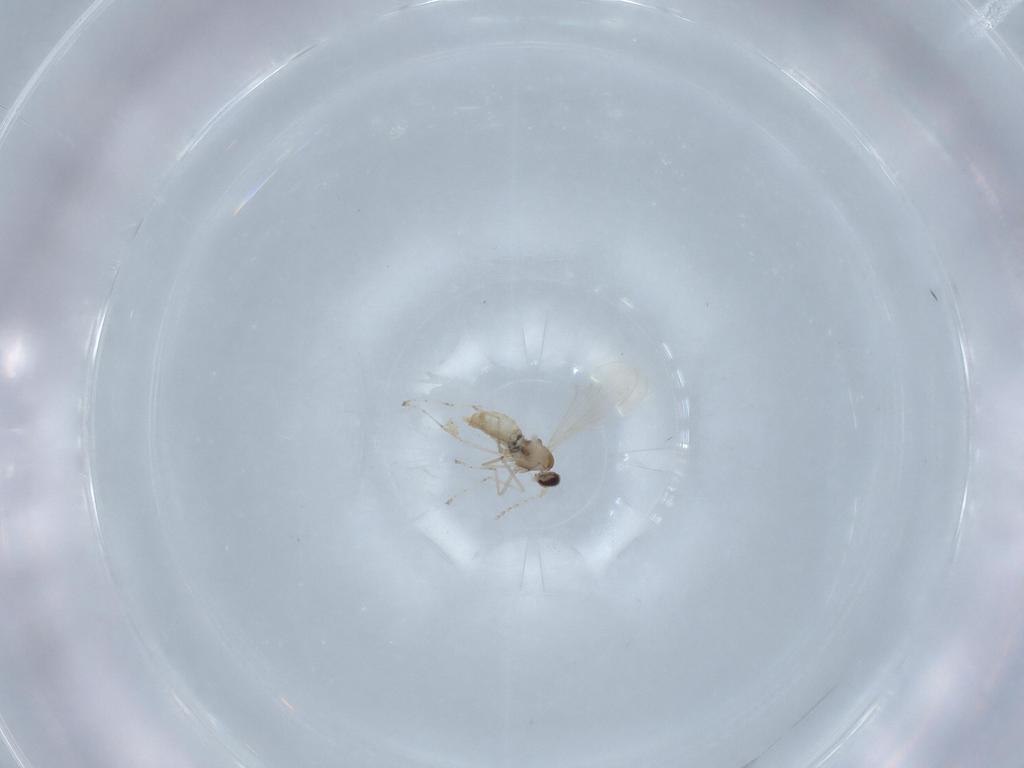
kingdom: Animalia
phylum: Arthropoda
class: Insecta
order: Diptera
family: Cecidomyiidae
